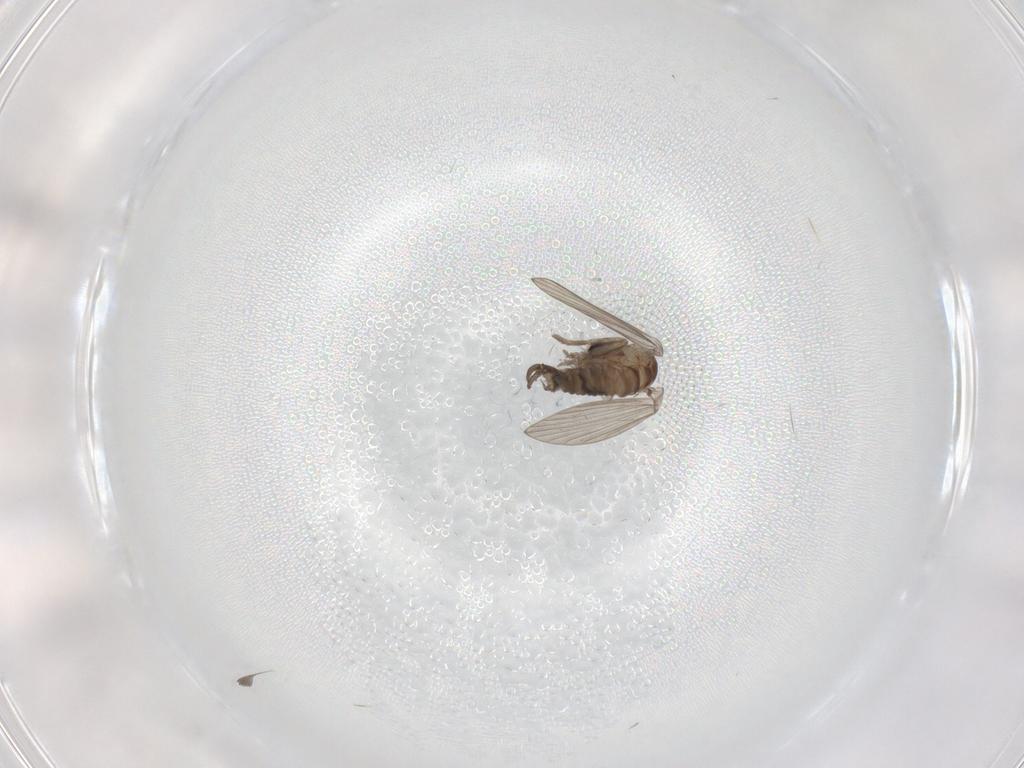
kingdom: Animalia
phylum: Arthropoda
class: Insecta
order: Diptera
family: Psychodidae
